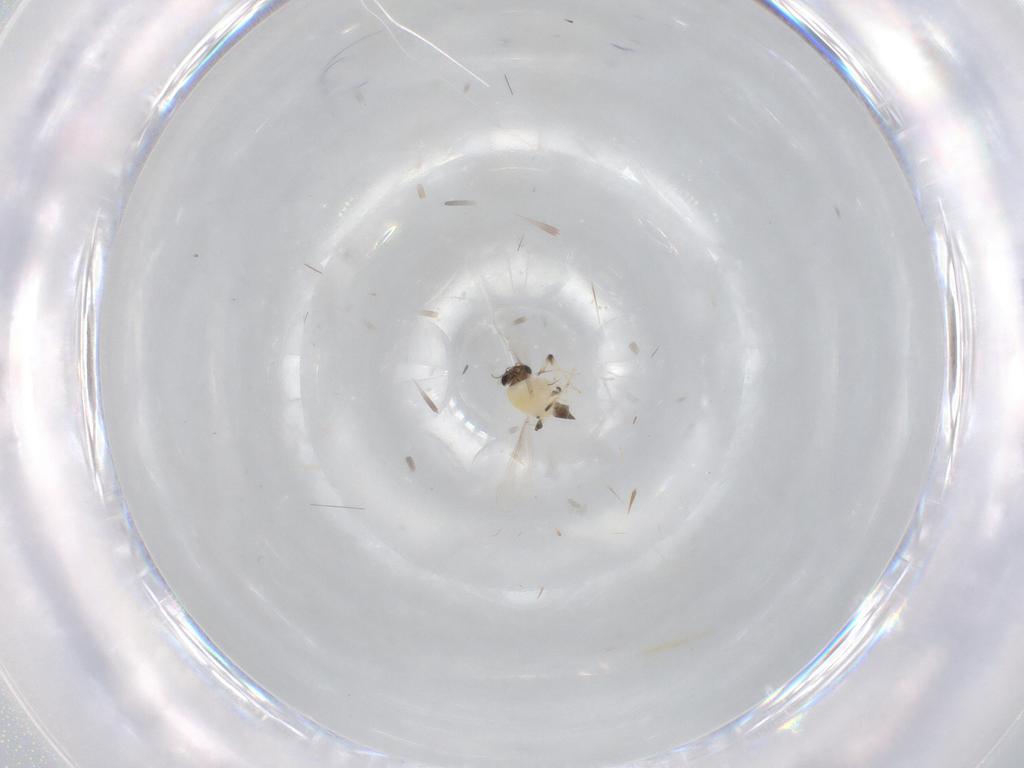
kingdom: Animalia
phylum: Arthropoda
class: Insecta
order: Diptera
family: Chironomidae
